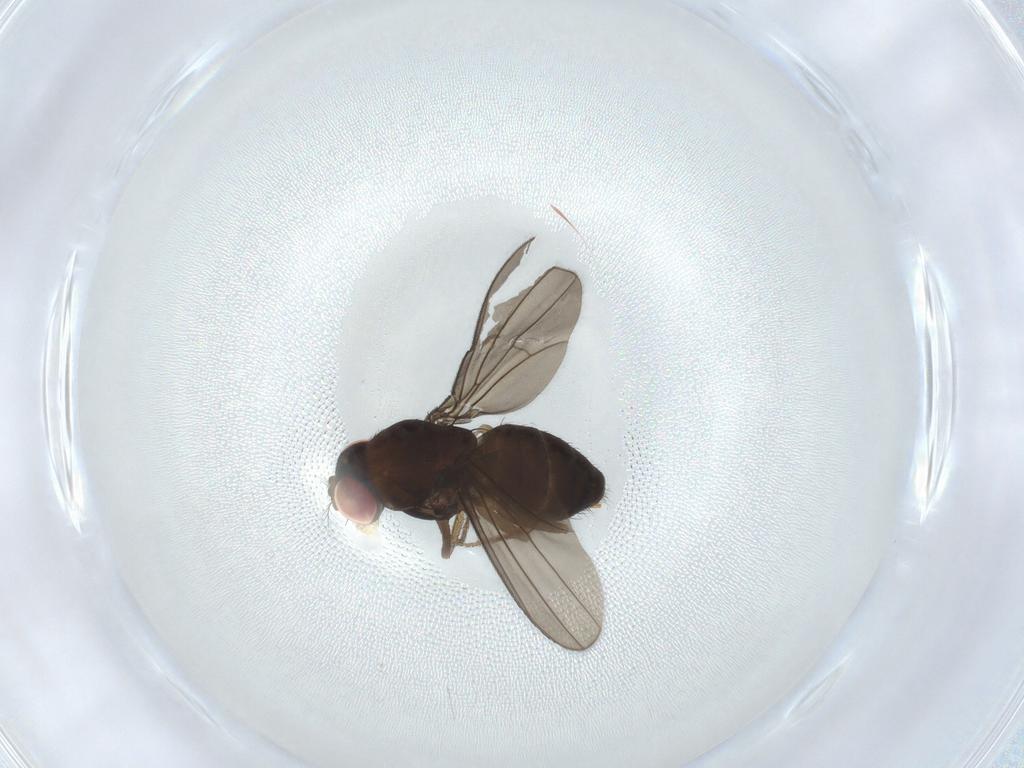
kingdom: Animalia
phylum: Arthropoda
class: Insecta
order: Diptera
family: Drosophilidae
